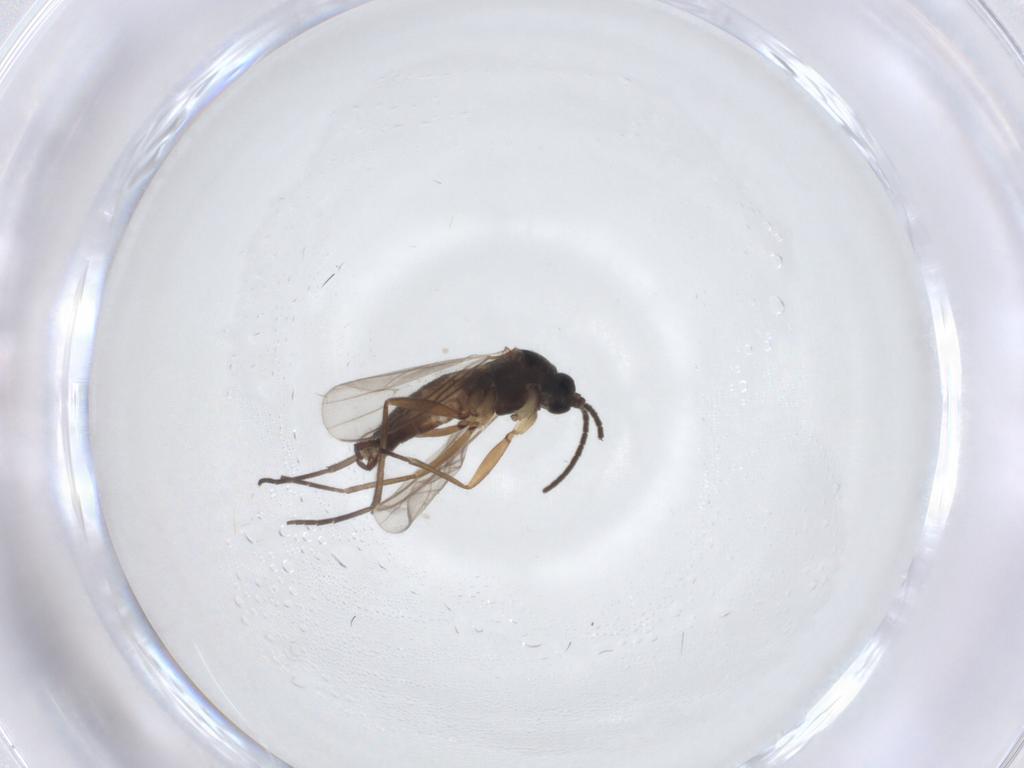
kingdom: Animalia
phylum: Arthropoda
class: Insecta
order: Diptera
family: Sciaridae
